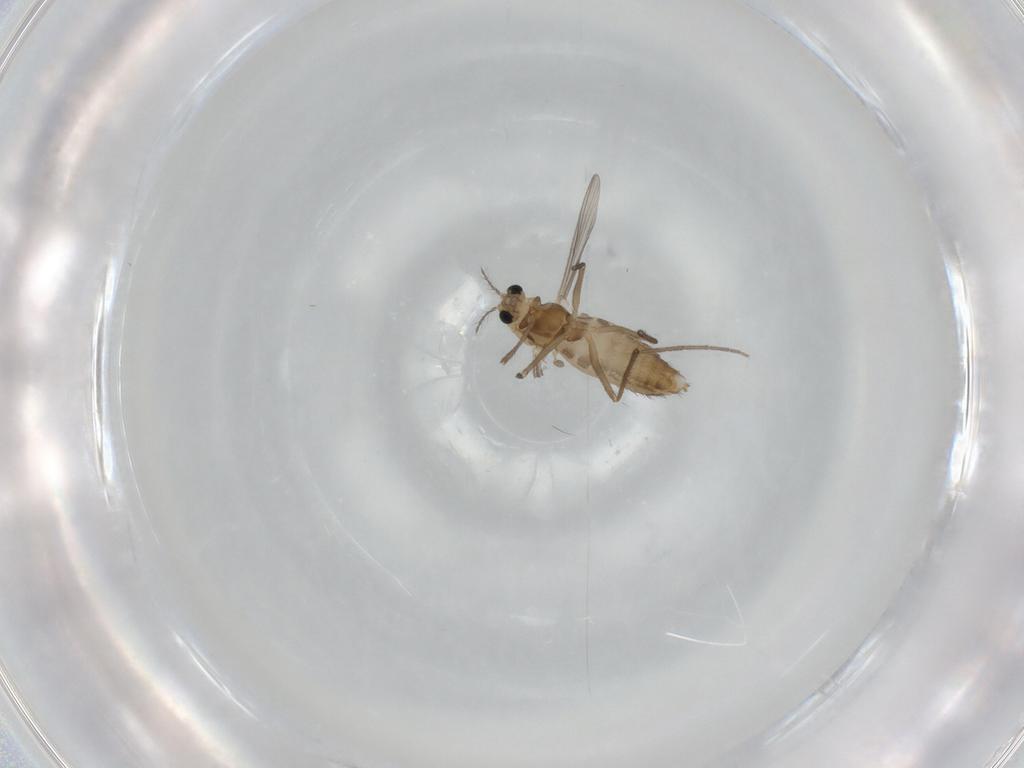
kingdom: Animalia
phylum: Arthropoda
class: Insecta
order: Diptera
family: Chironomidae
